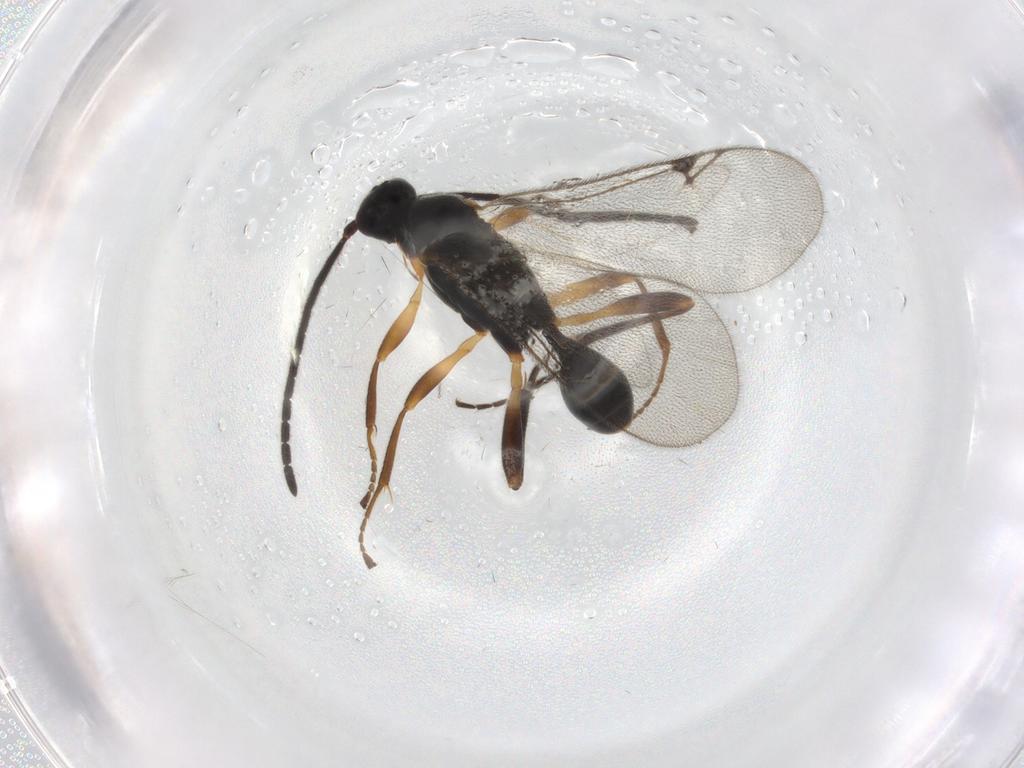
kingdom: Animalia
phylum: Arthropoda
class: Insecta
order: Hymenoptera
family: Proctotrupidae
